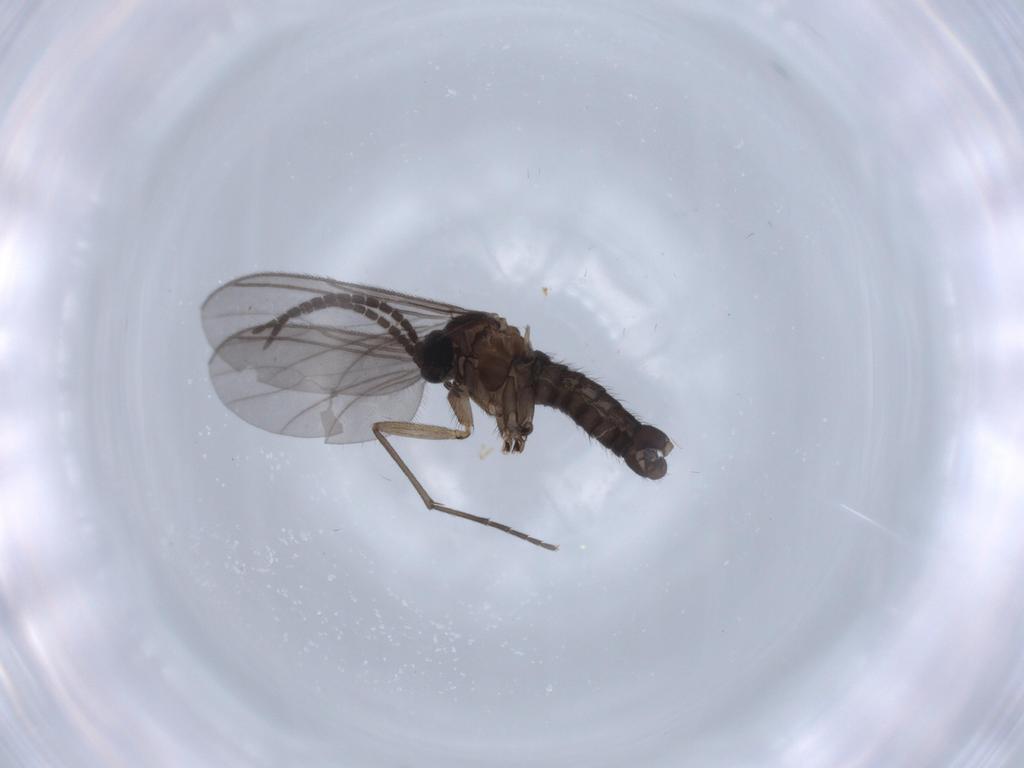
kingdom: Animalia
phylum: Arthropoda
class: Insecta
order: Diptera
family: Sciaridae
